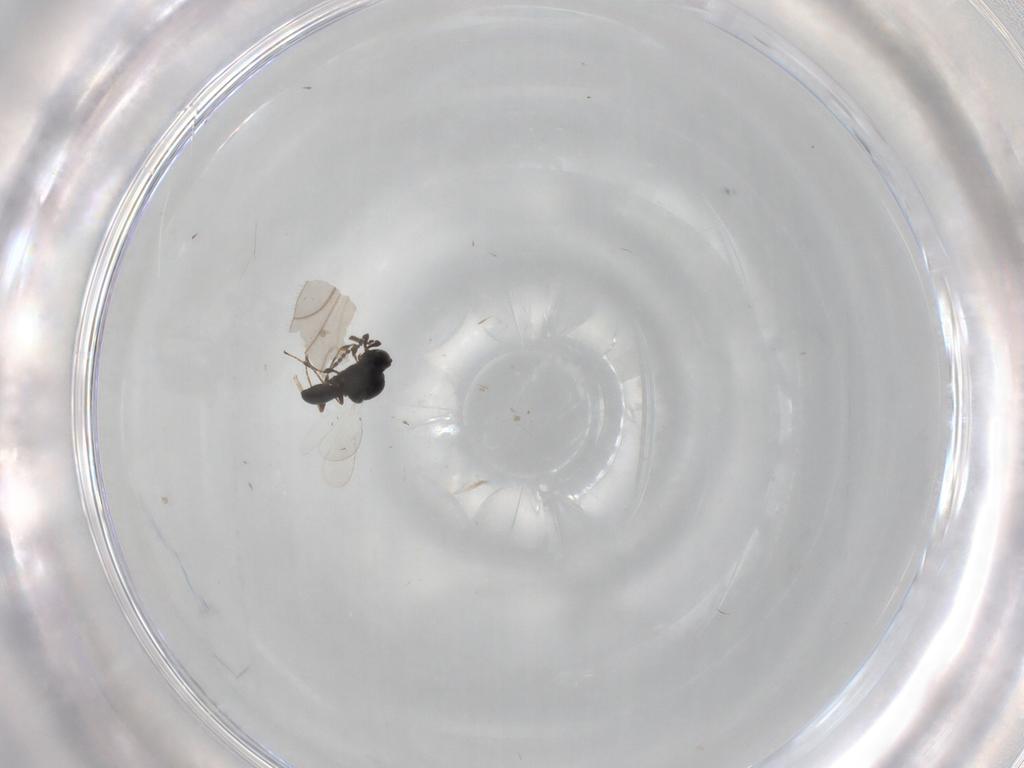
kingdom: Animalia
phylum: Arthropoda
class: Insecta
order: Hymenoptera
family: Platygastridae
